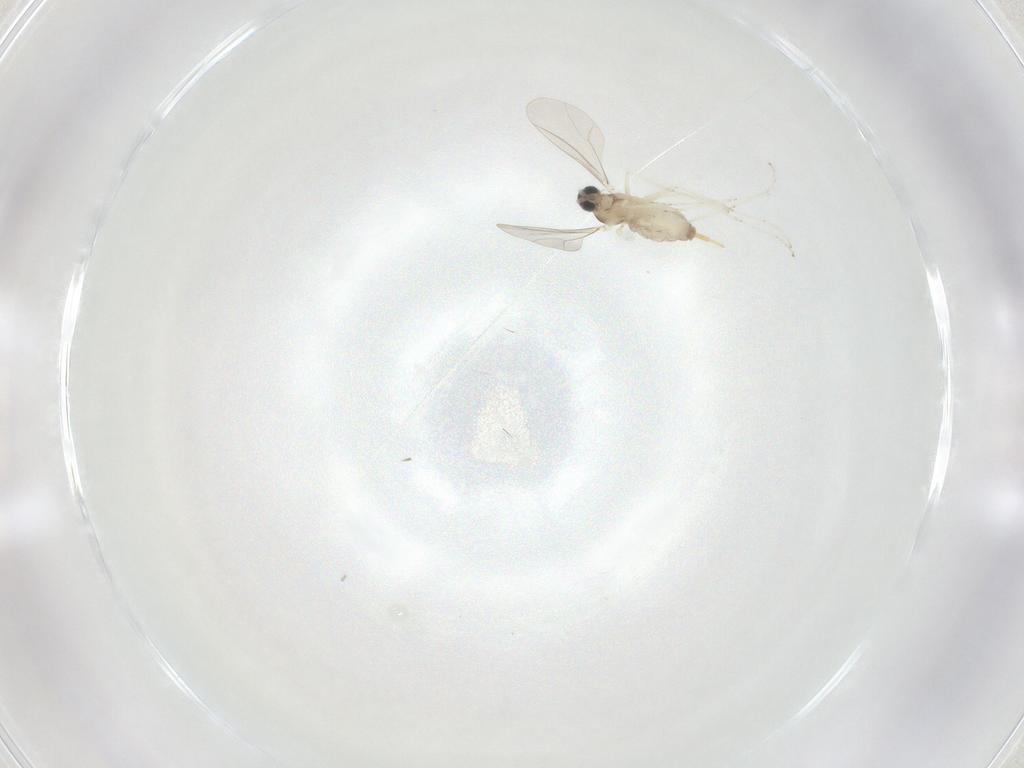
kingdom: Animalia
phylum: Arthropoda
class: Insecta
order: Diptera
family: Cecidomyiidae
